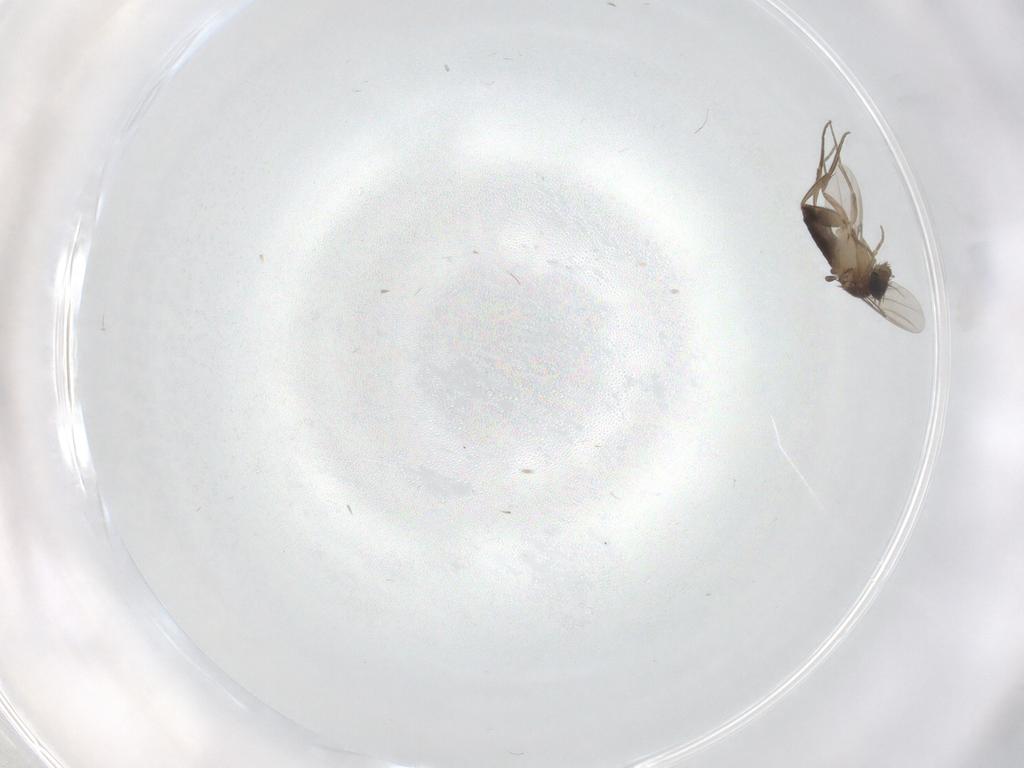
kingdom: Animalia
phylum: Arthropoda
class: Insecta
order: Diptera
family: Phoridae
